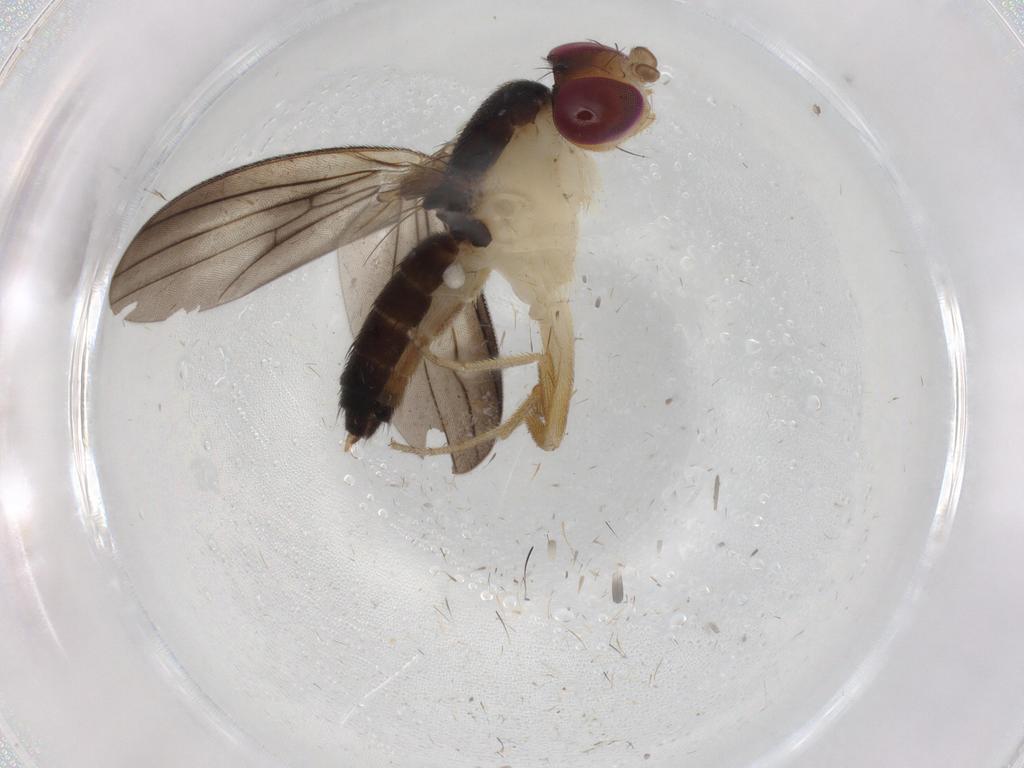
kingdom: Animalia
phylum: Arthropoda
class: Insecta
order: Diptera
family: Clusiidae
